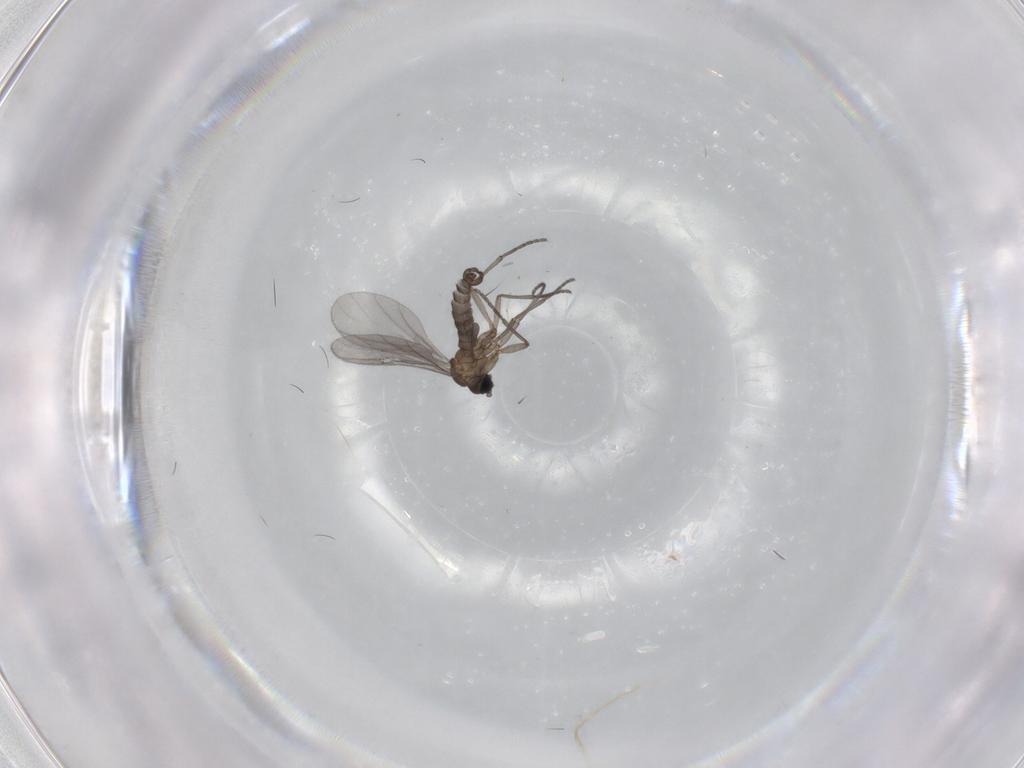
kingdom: Animalia
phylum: Arthropoda
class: Insecta
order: Diptera
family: Sciaridae
